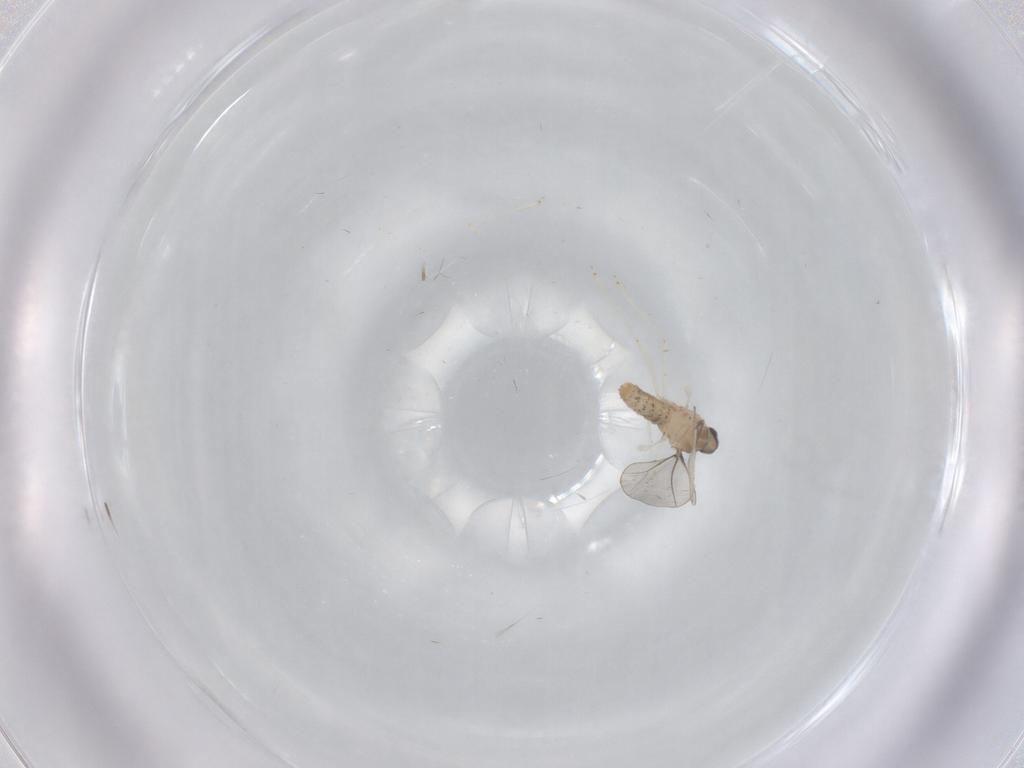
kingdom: Animalia
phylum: Arthropoda
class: Insecta
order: Diptera
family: Cecidomyiidae
